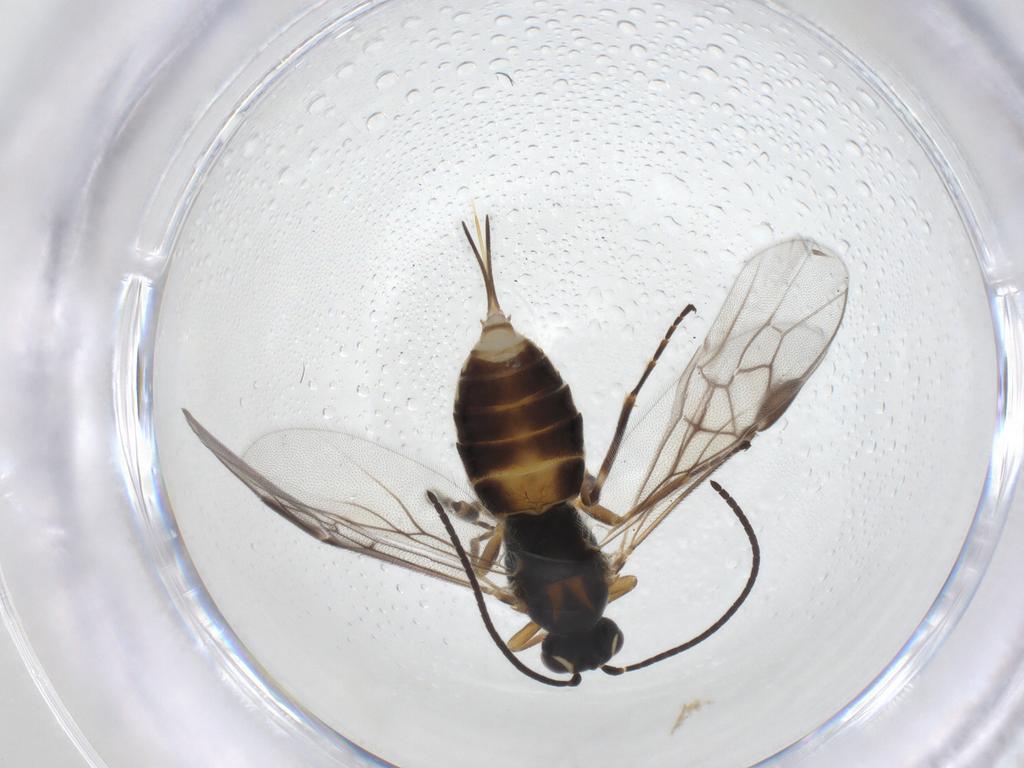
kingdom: Animalia
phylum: Arthropoda
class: Insecta
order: Hymenoptera
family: Braconidae
